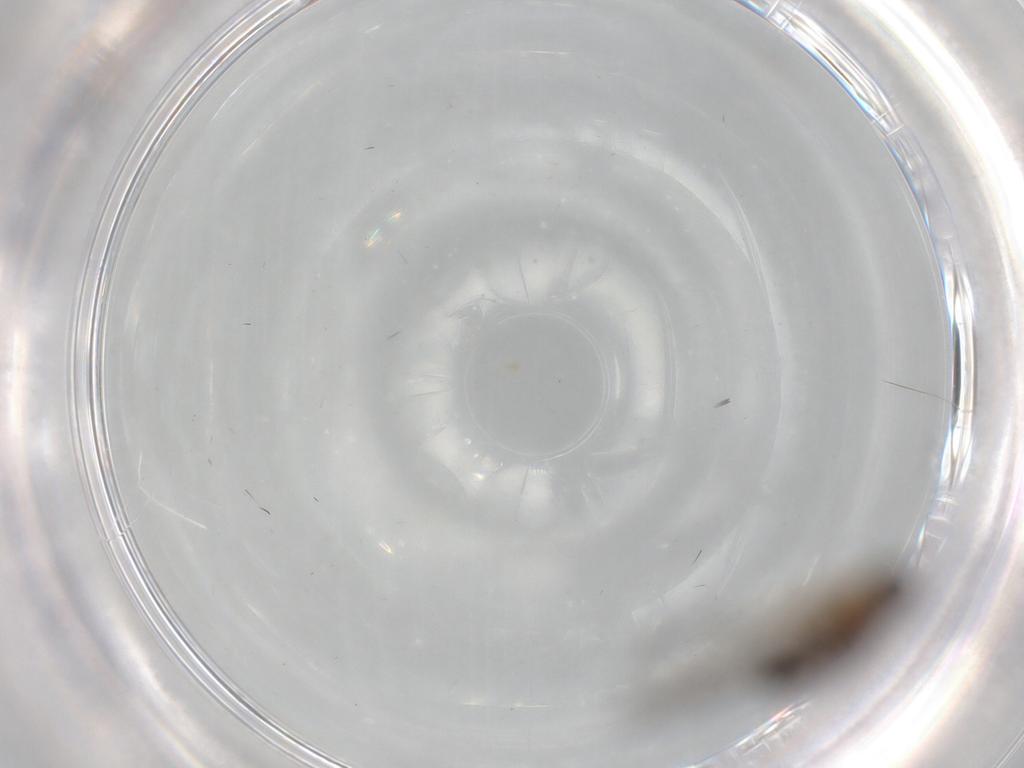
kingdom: Animalia
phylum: Arthropoda
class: Insecta
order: Diptera
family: Mycetophilidae
